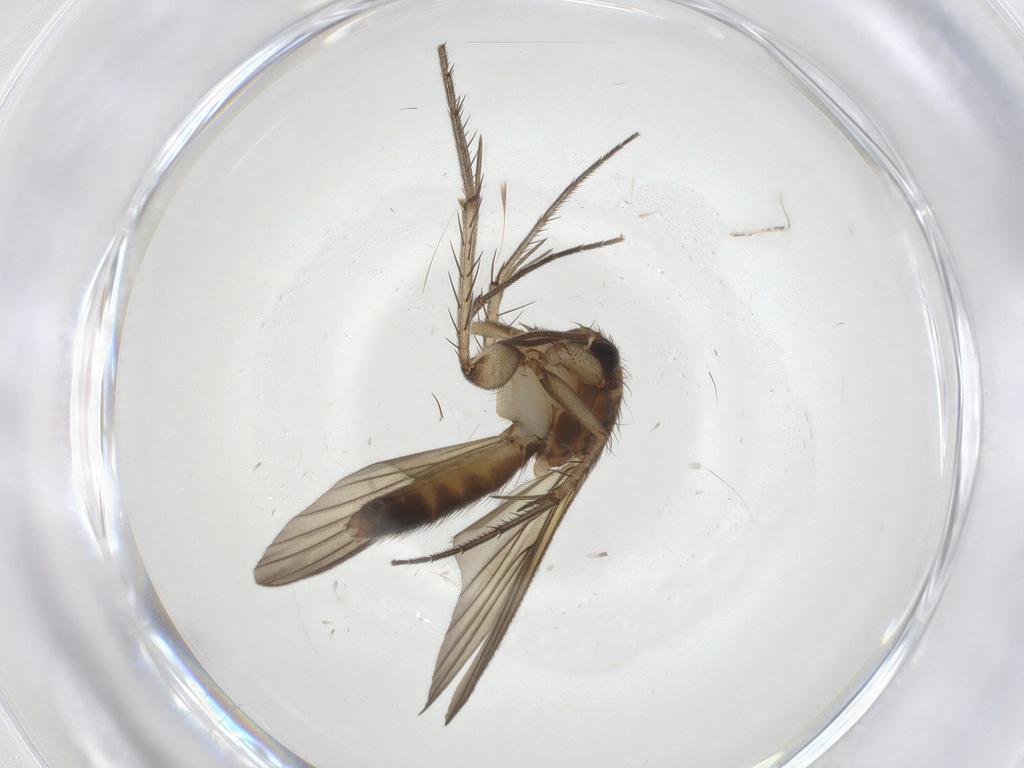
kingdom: Animalia
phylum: Arthropoda
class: Insecta
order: Diptera
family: Mycetophilidae
